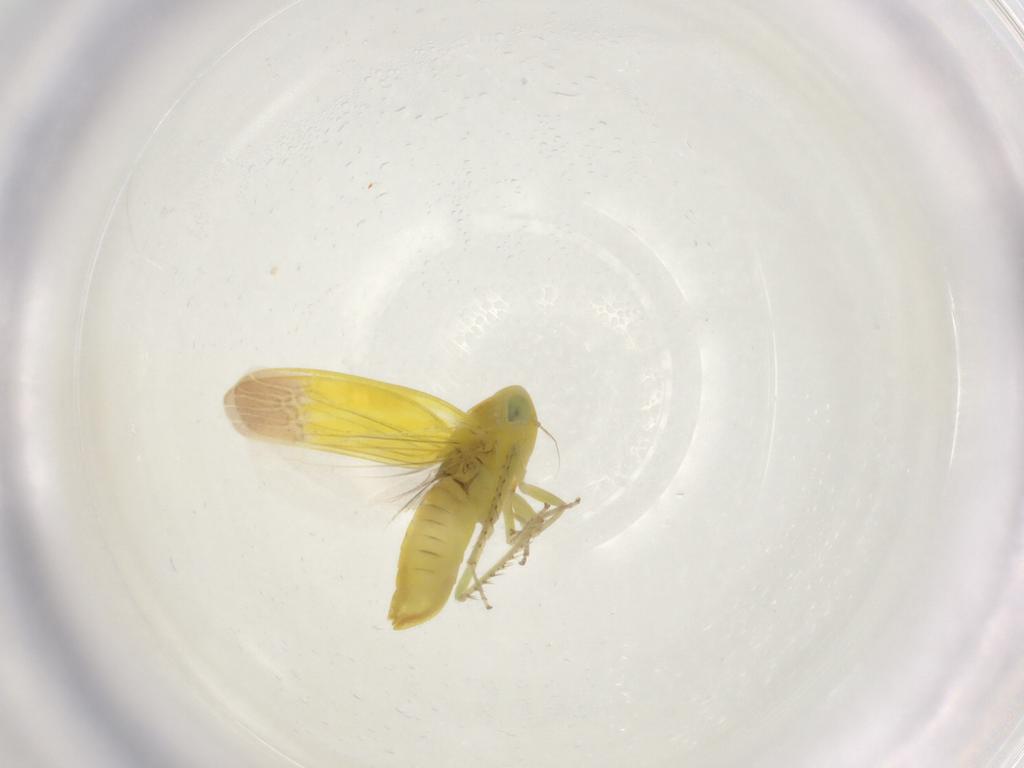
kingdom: Animalia
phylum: Arthropoda
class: Insecta
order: Hemiptera
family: Cicadellidae
